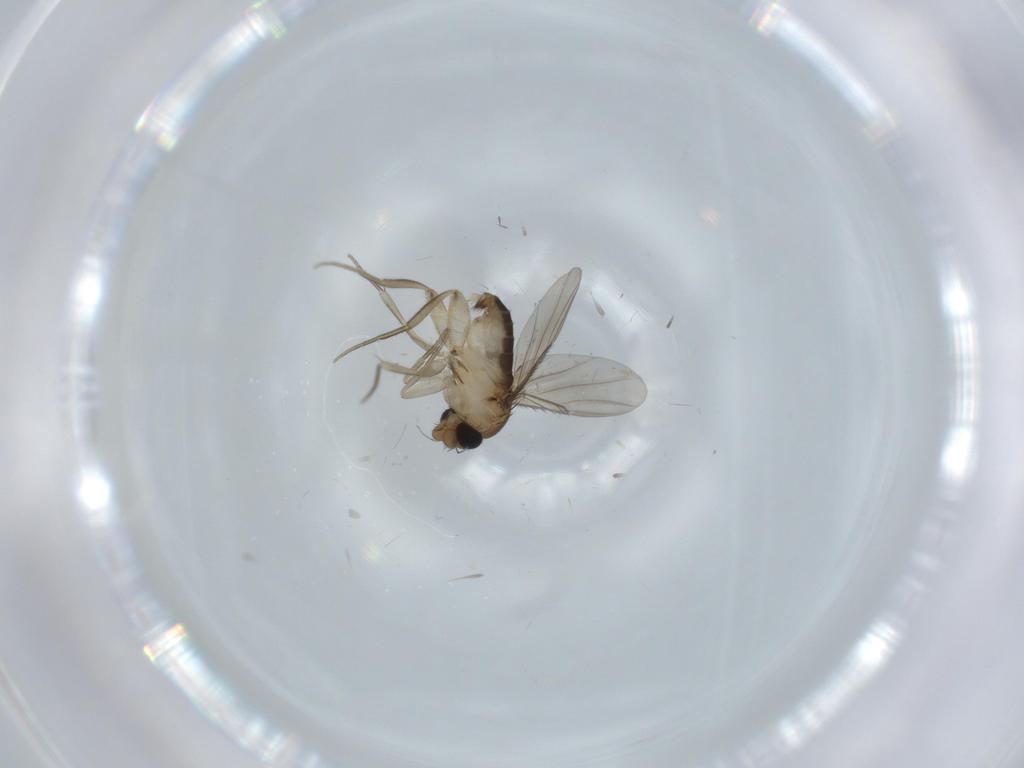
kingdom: Animalia
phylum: Arthropoda
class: Insecta
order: Diptera
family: Phoridae
